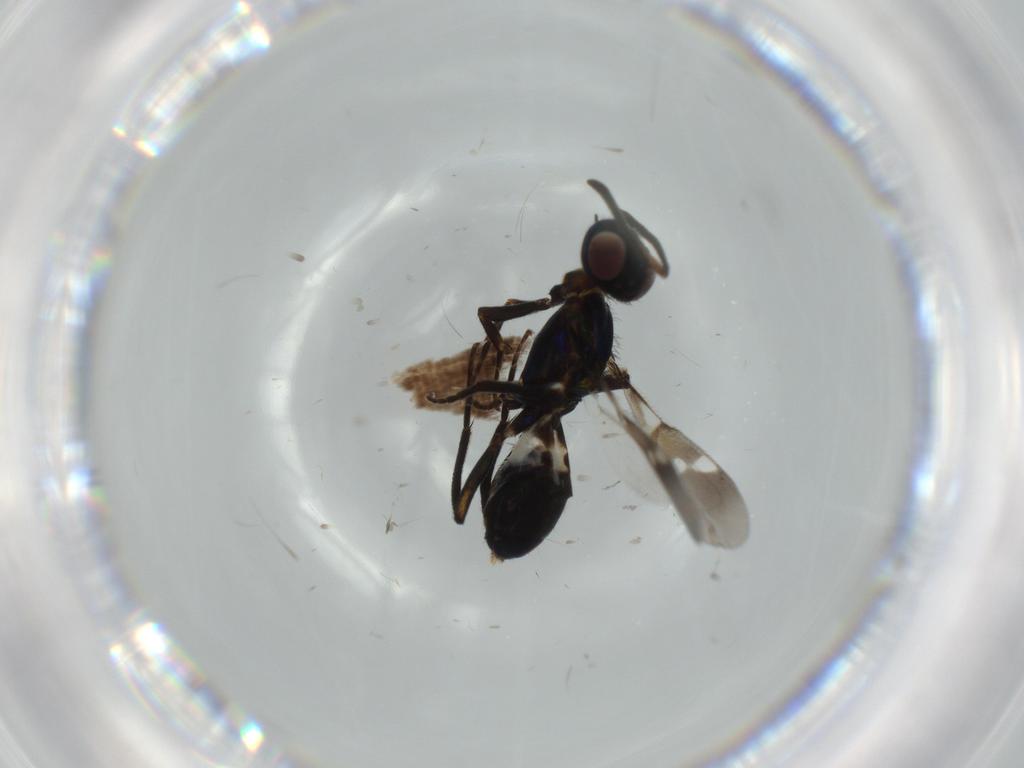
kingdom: Animalia
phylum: Arthropoda
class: Insecta
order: Hymenoptera
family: Eupelmidae
